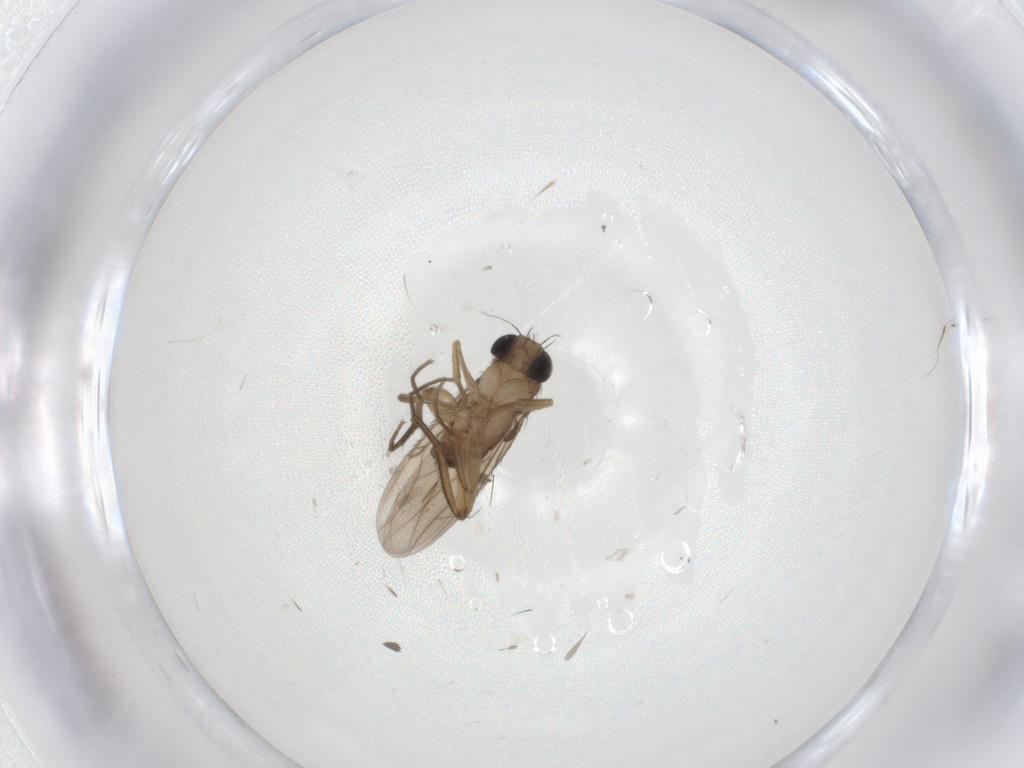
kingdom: Animalia
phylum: Arthropoda
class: Insecta
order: Diptera
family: Phoridae
